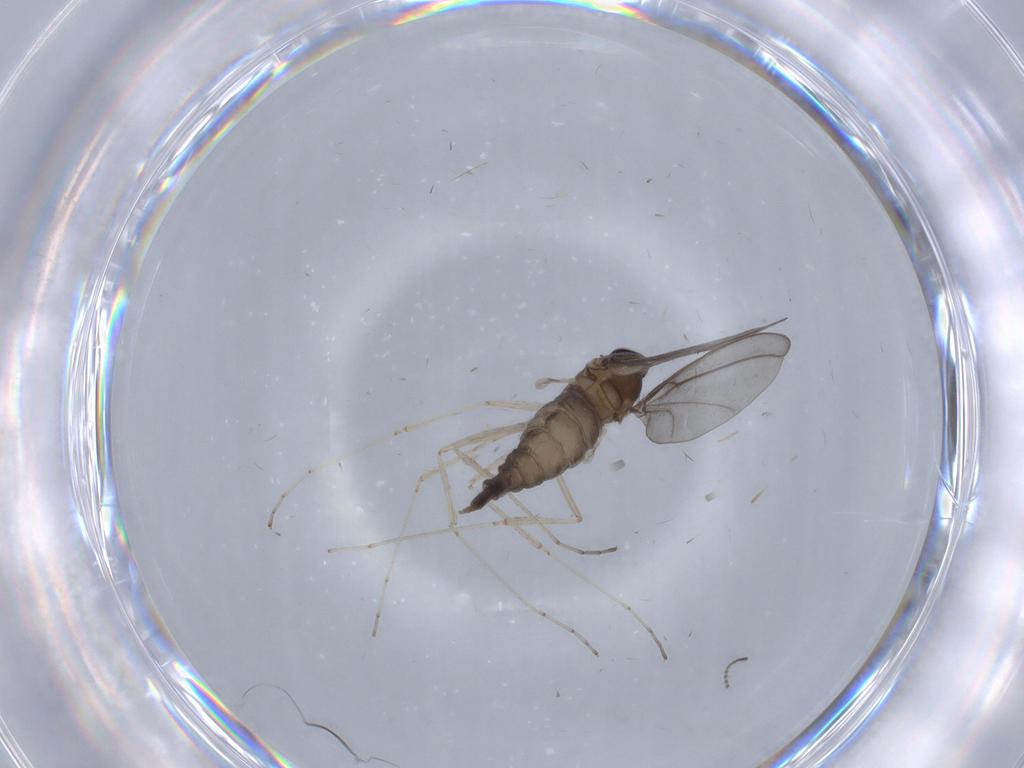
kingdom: Animalia
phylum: Arthropoda
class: Insecta
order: Diptera
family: Cecidomyiidae
